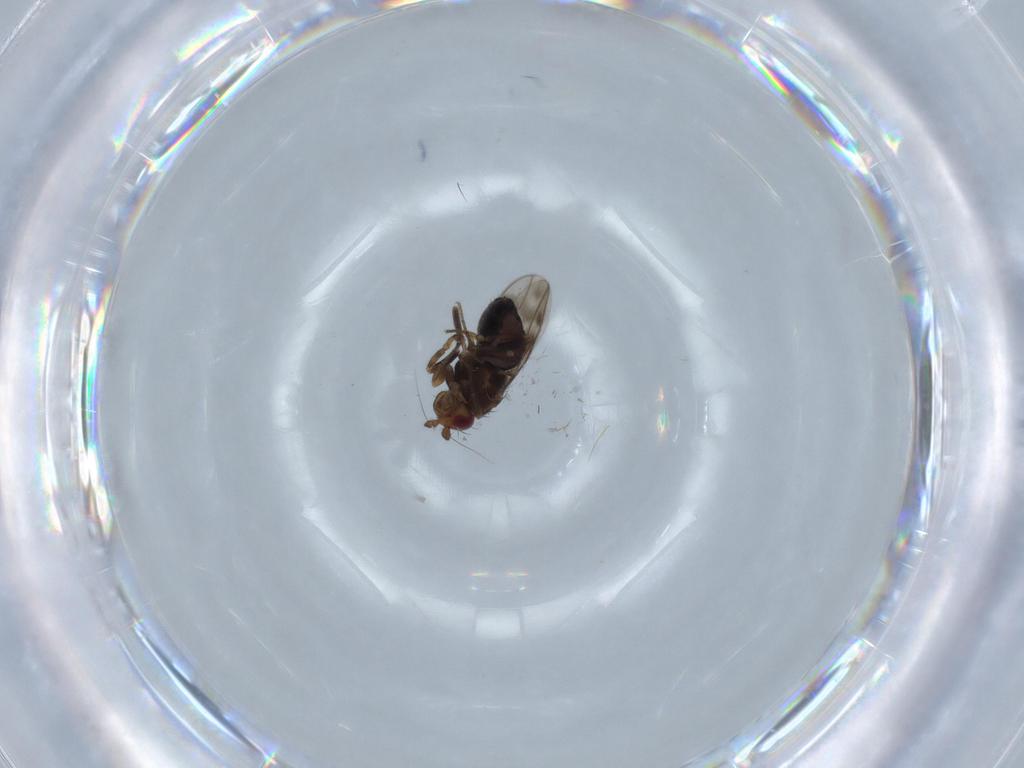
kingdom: Animalia
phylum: Arthropoda
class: Insecta
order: Diptera
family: Sphaeroceridae
